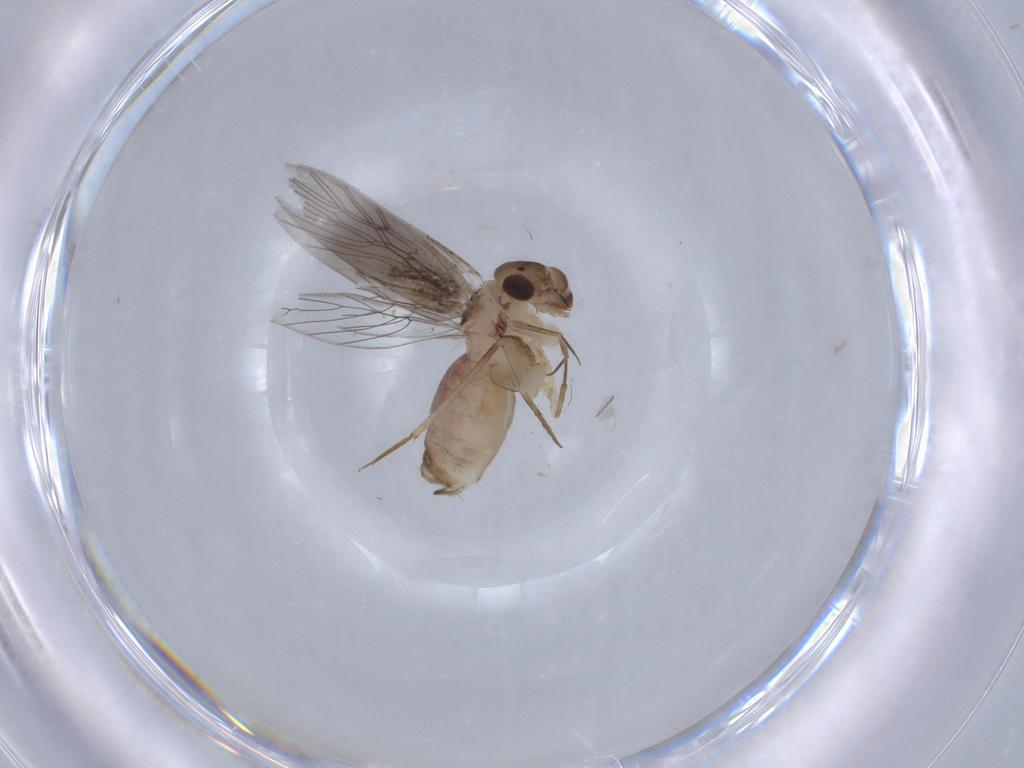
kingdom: Animalia
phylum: Arthropoda
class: Insecta
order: Psocodea
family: Lepidopsocidae
